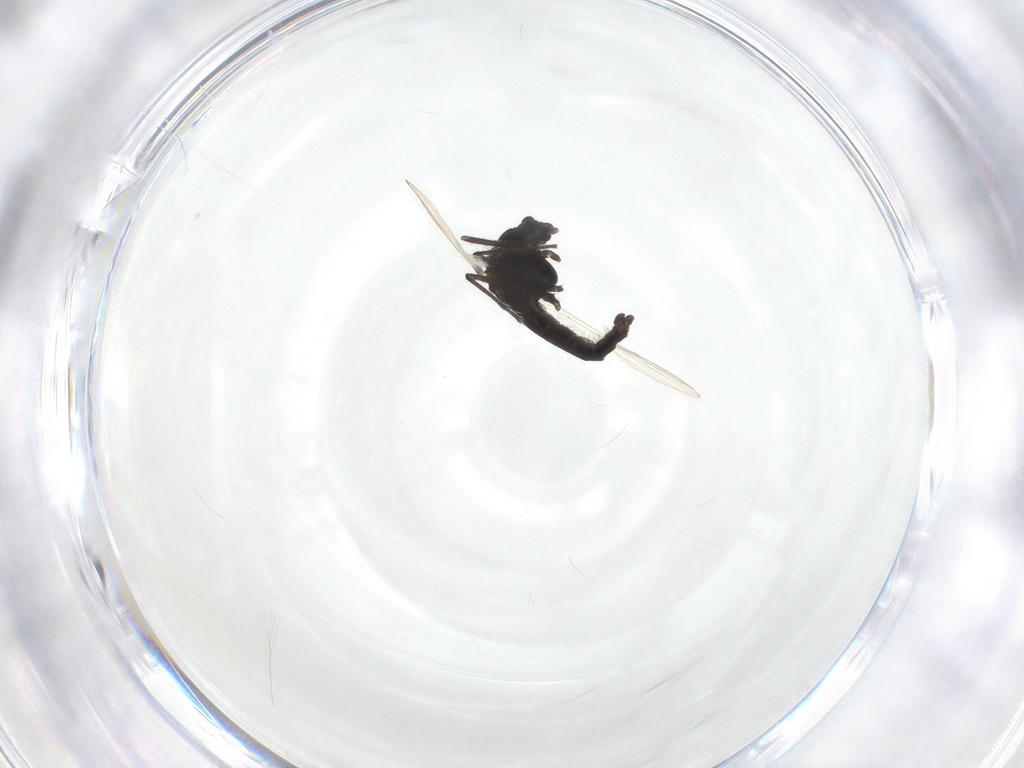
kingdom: Animalia
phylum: Arthropoda
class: Insecta
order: Diptera
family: Chironomidae
